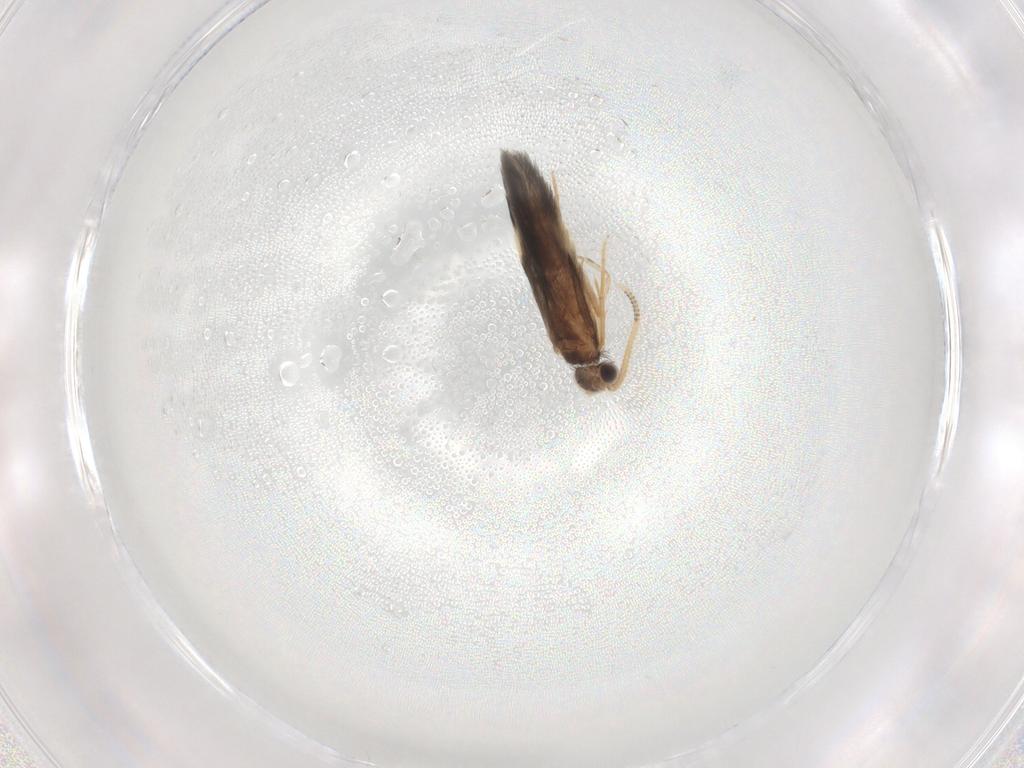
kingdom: Animalia
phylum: Arthropoda
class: Insecta
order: Trichoptera
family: Hydroptilidae
